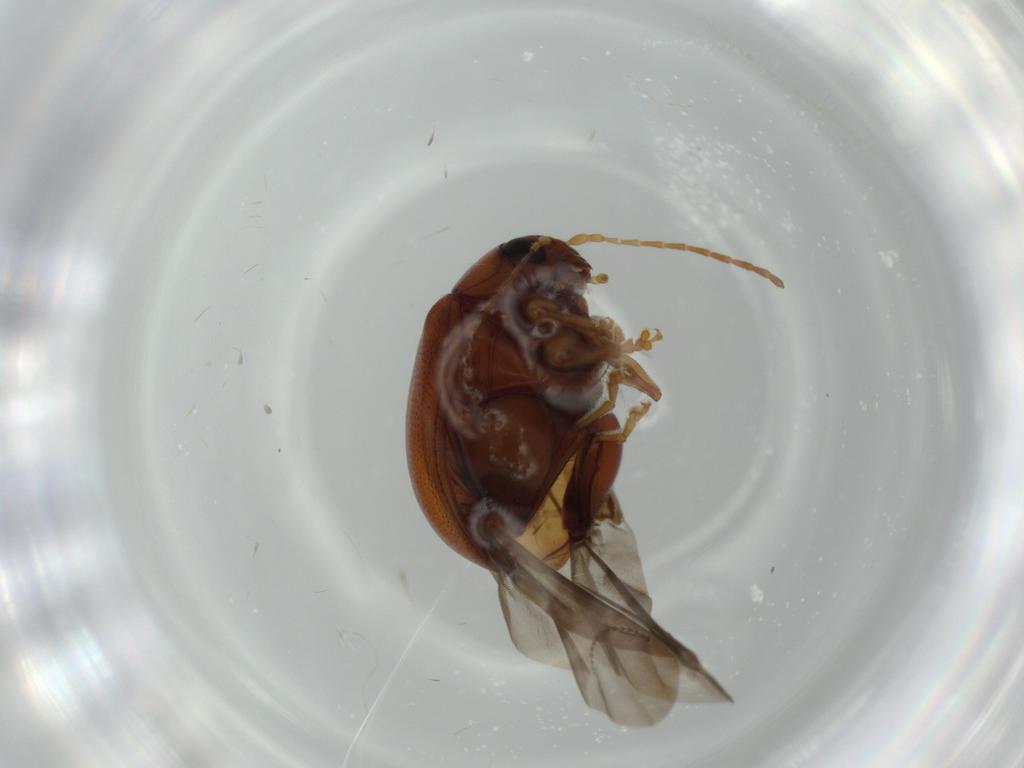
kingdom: Animalia
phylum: Arthropoda
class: Insecta
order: Coleoptera
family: Chrysomelidae
